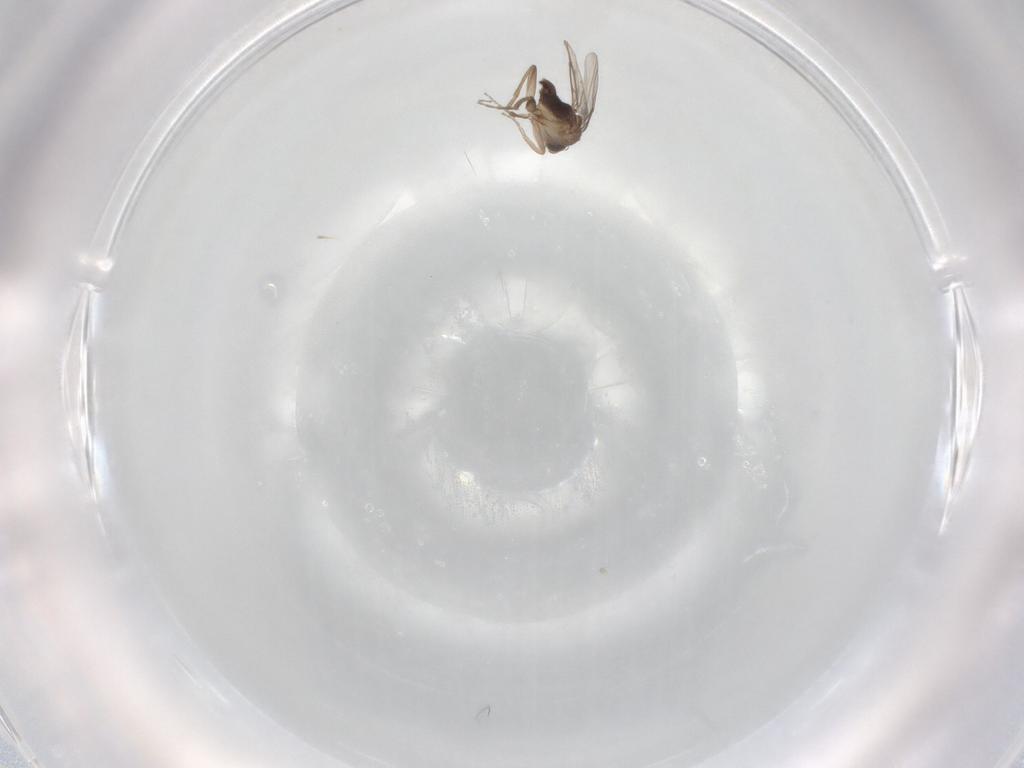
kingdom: Animalia
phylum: Arthropoda
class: Insecta
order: Diptera
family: Phoridae
